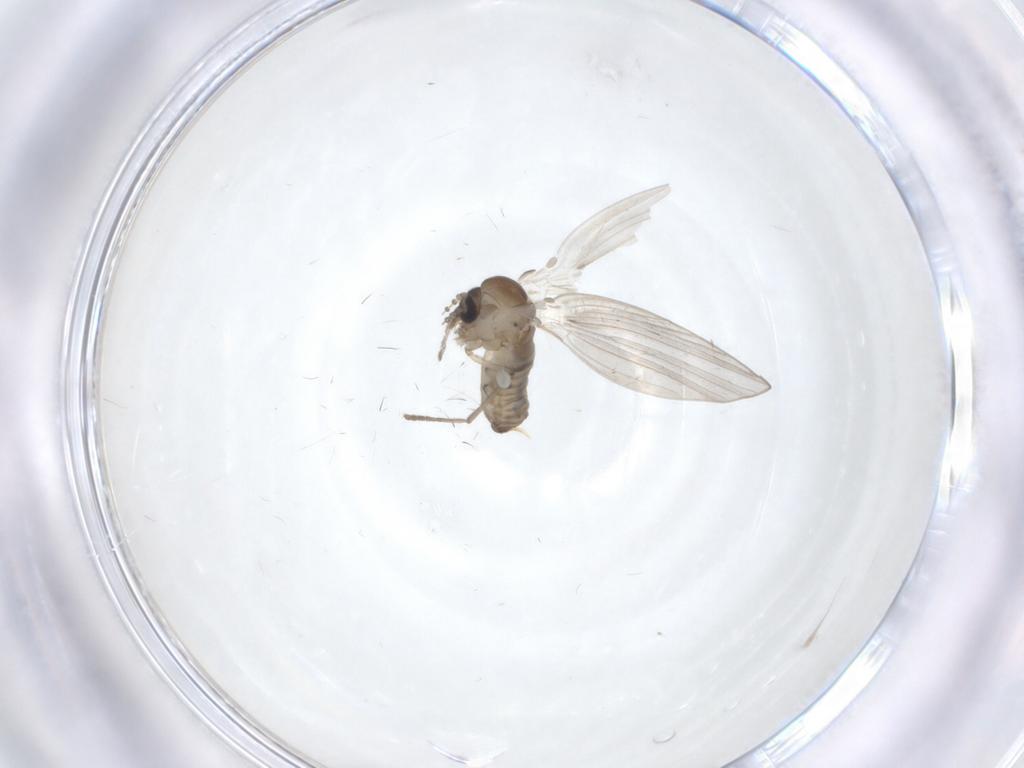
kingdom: Animalia
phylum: Arthropoda
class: Insecta
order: Diptera
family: Psychodidae
